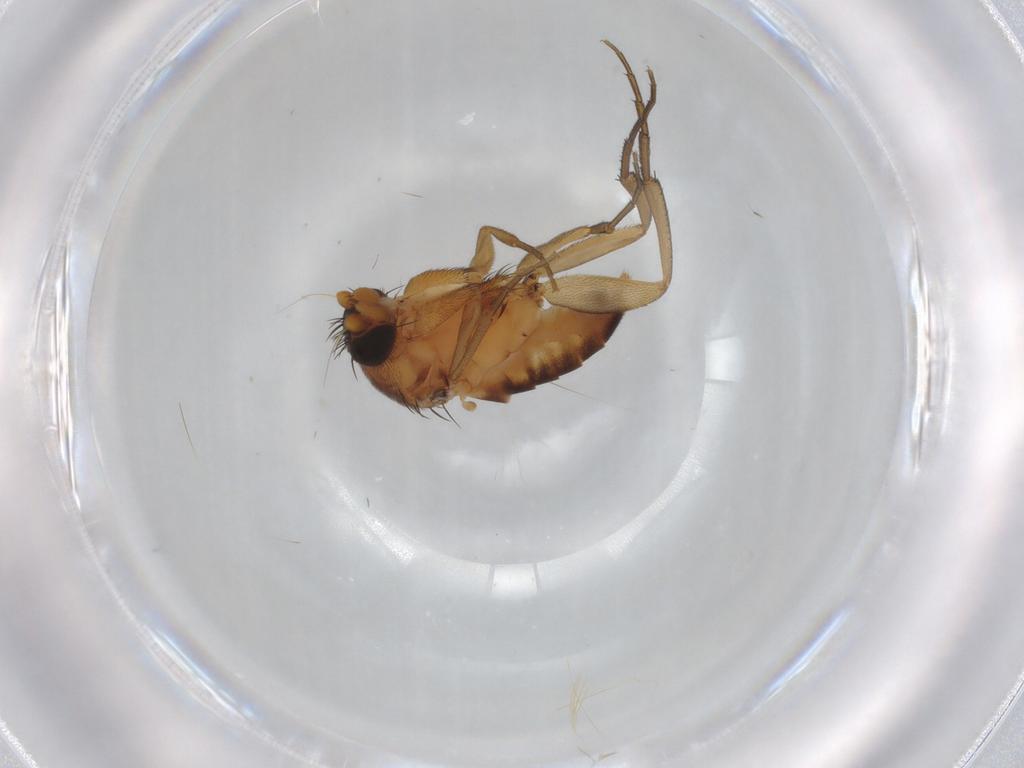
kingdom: Animalia
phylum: Arthropoda
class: Insecta
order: Diptera
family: Phoridae
